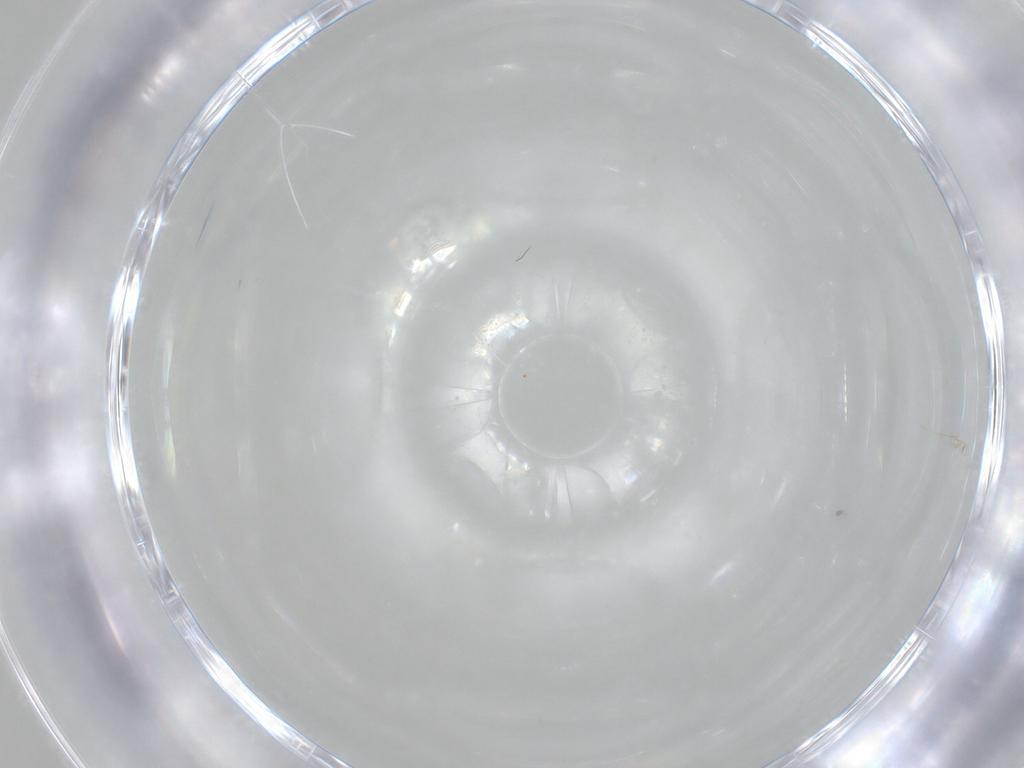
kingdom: Animalia
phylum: Arthropoda
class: Arachnida
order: Trombidiformes
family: Erythraeidae
